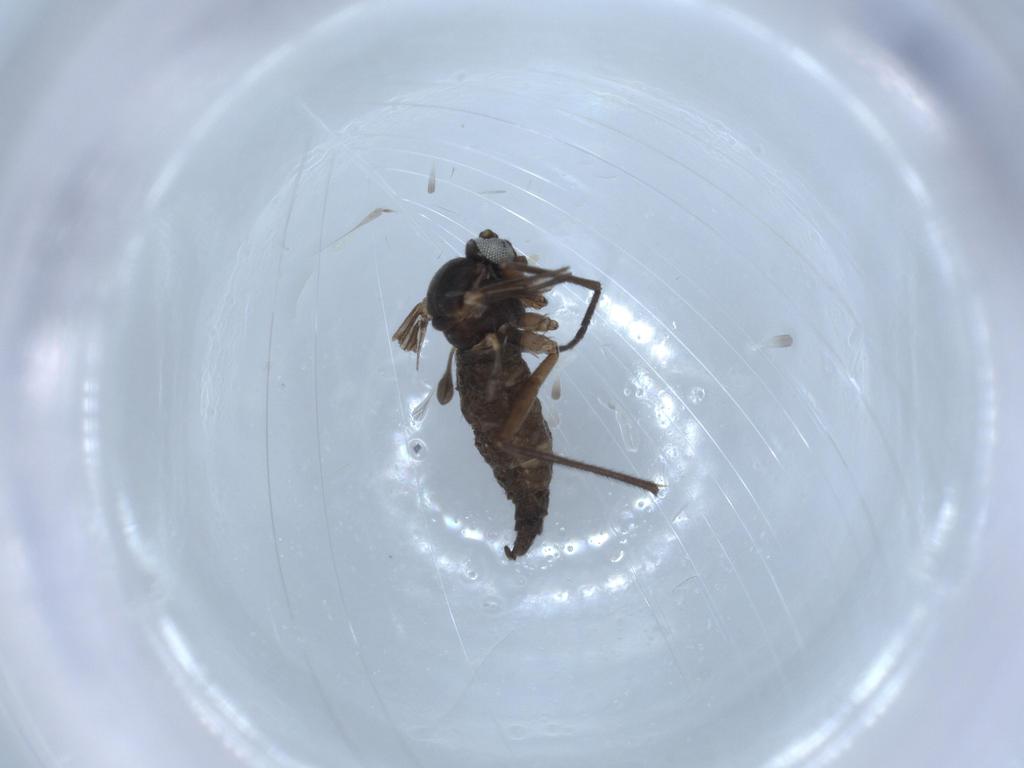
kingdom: Animalia
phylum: Arthropoda
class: Insecta
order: Diptera
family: Sciaridae
